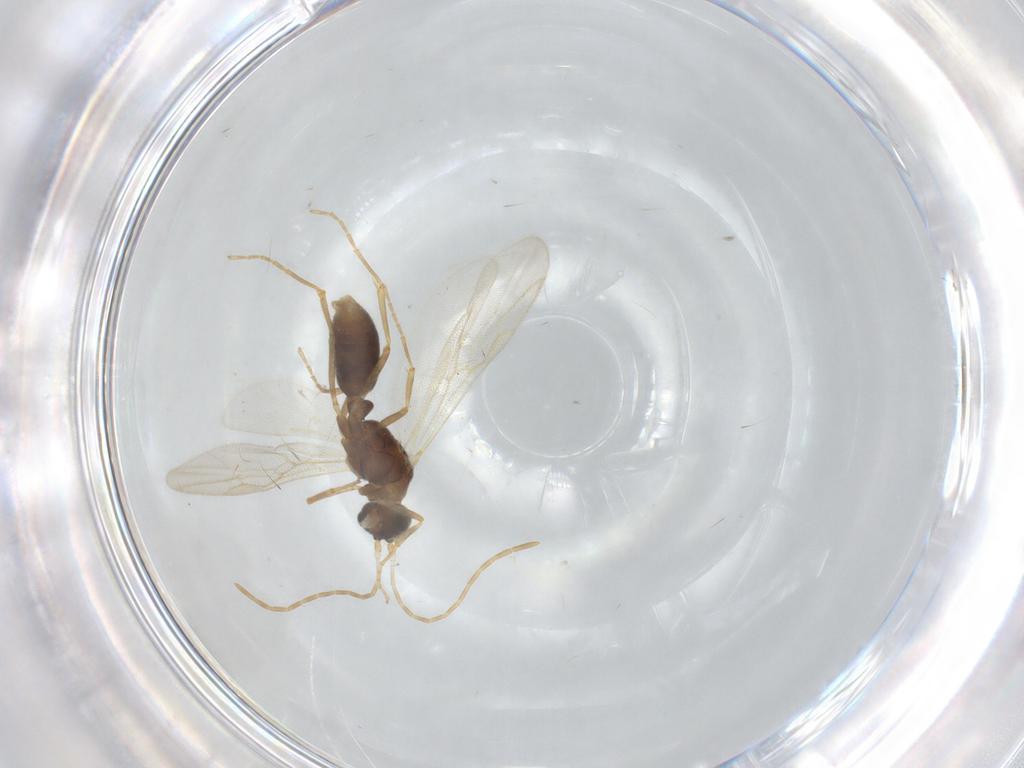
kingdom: Animalia
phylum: Arthropoda
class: Insecta
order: Hymenoptera
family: Formicidae
